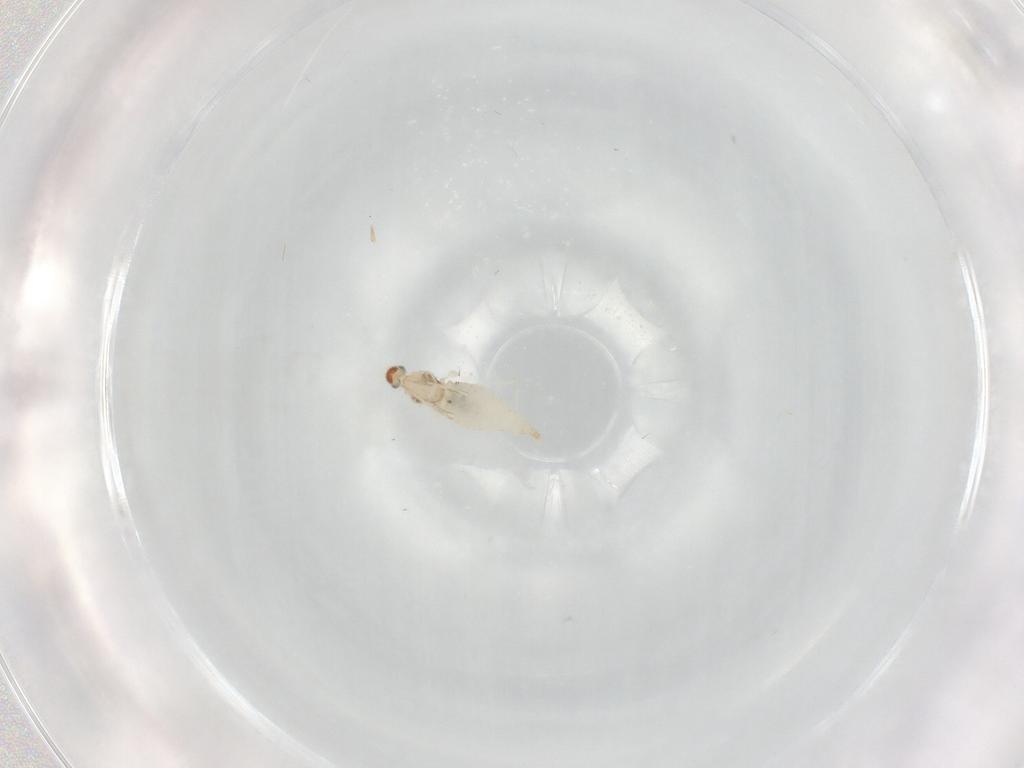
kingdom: Animalia
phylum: Arthropoda
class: Insecta
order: Diptera
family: Cecidomyiidae
